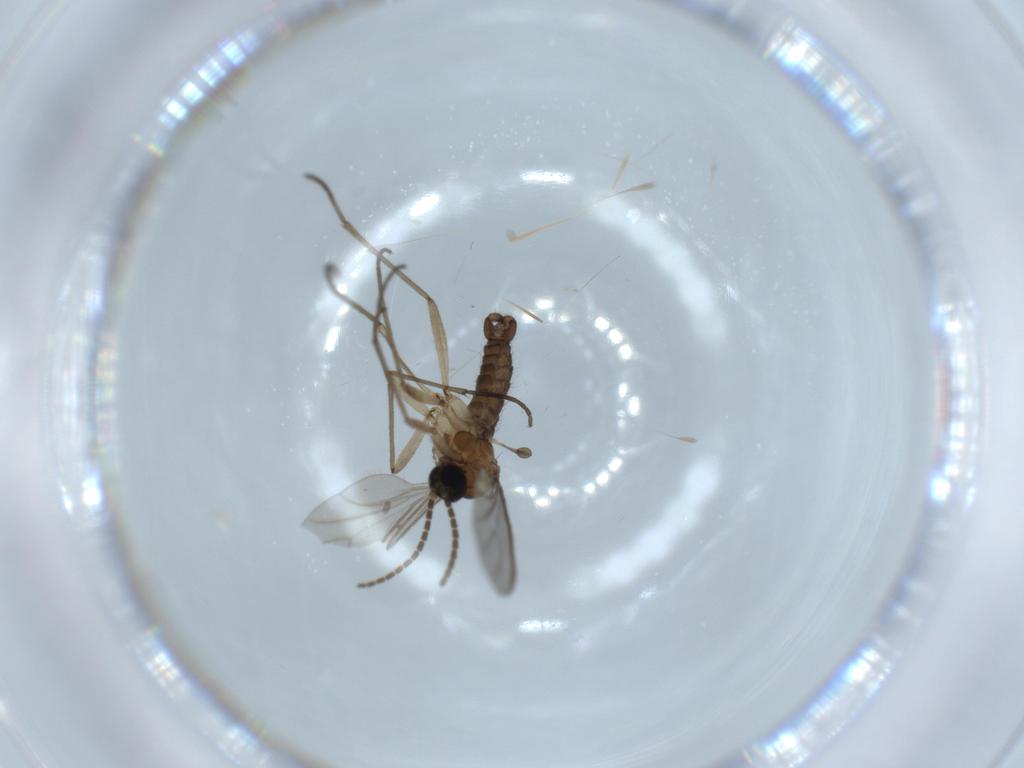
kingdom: Animalia
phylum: Arthropoda
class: Insecta
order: Diptera
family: Sciaridae
